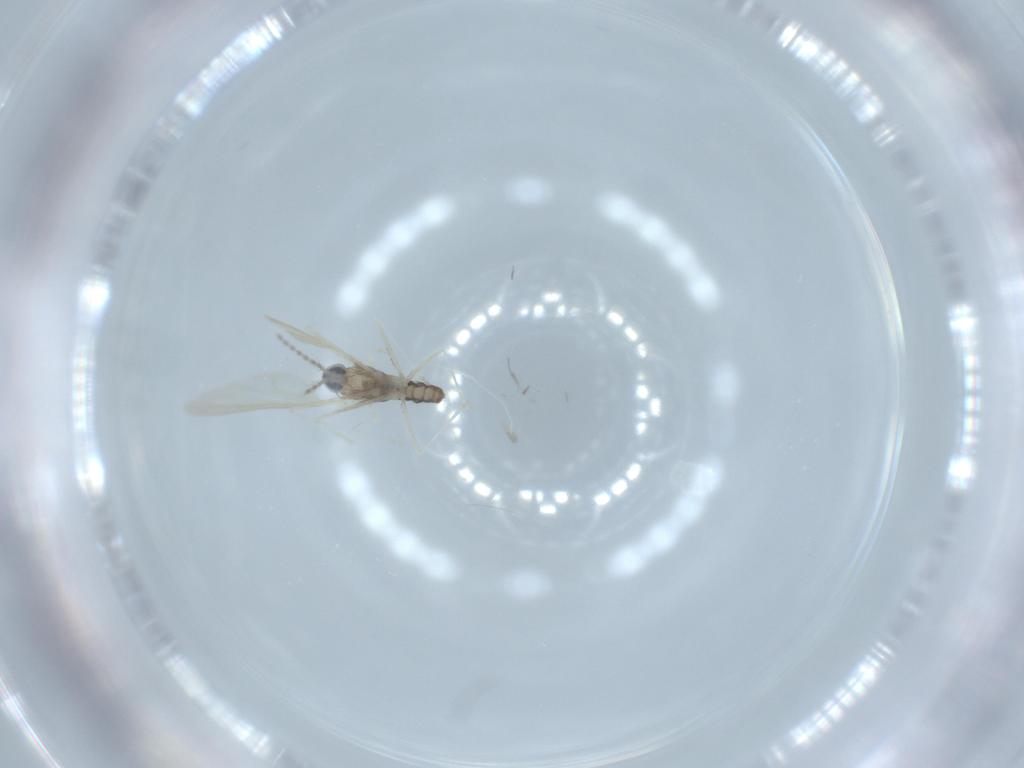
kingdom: Animalia
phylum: Arthropoda
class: Insecta
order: Diptera
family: Cecidomyiidae
